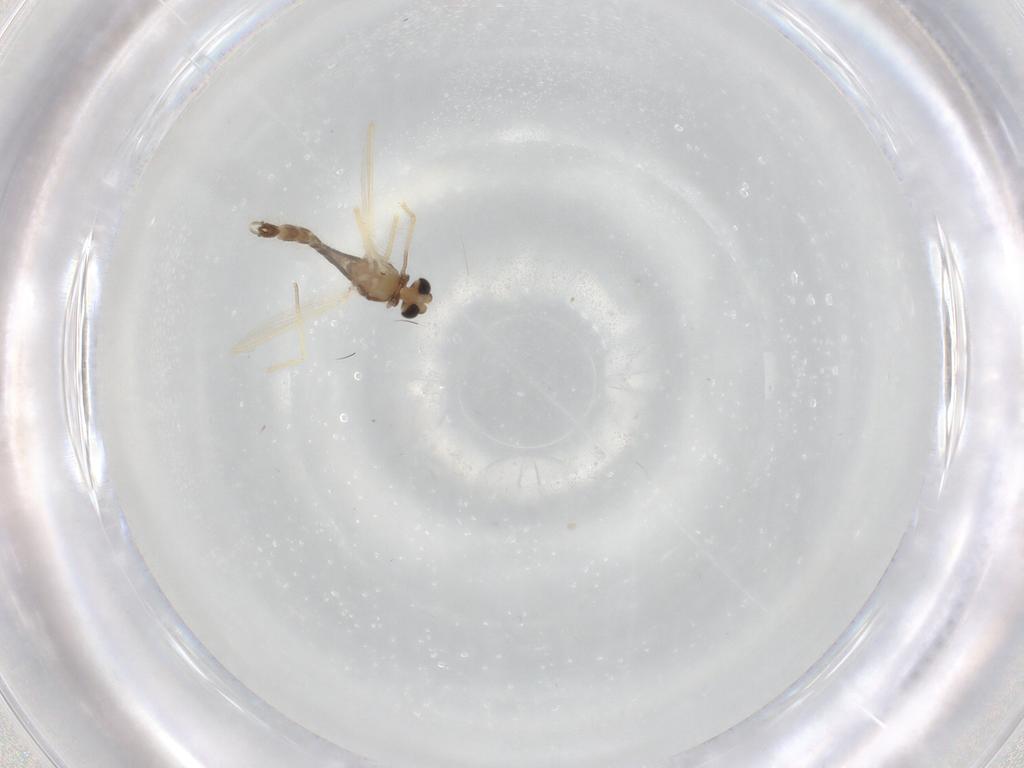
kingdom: Animalia
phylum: Arthropoda
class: Insecta
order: Diptera
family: Chironomidae
